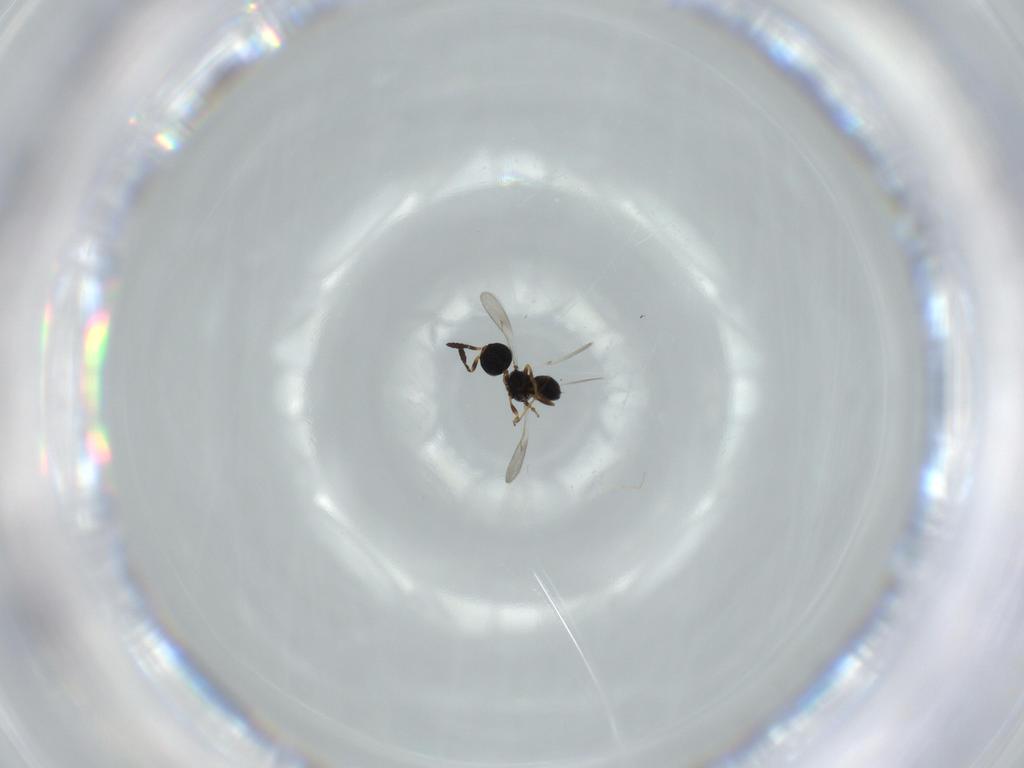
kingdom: Animalia
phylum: Arthropoda
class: Insecta
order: Hymenoptera
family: Scelionidae
